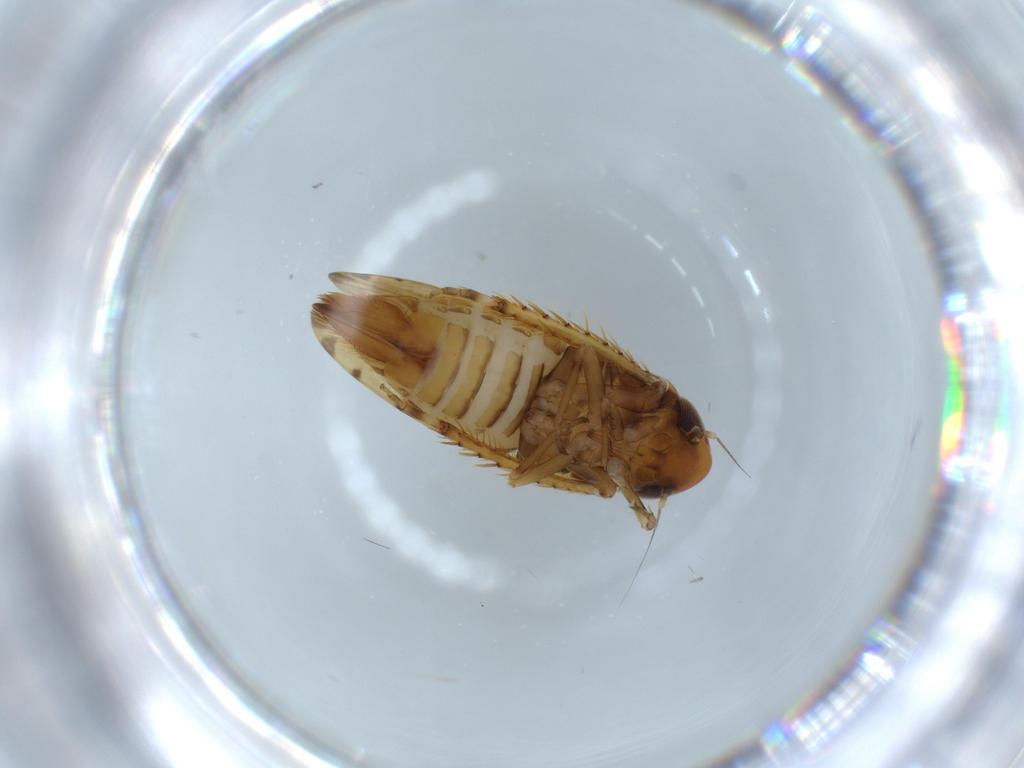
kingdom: Animalia
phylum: Arthropoda
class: Insecta
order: Hemiptera
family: Cicadellidae
